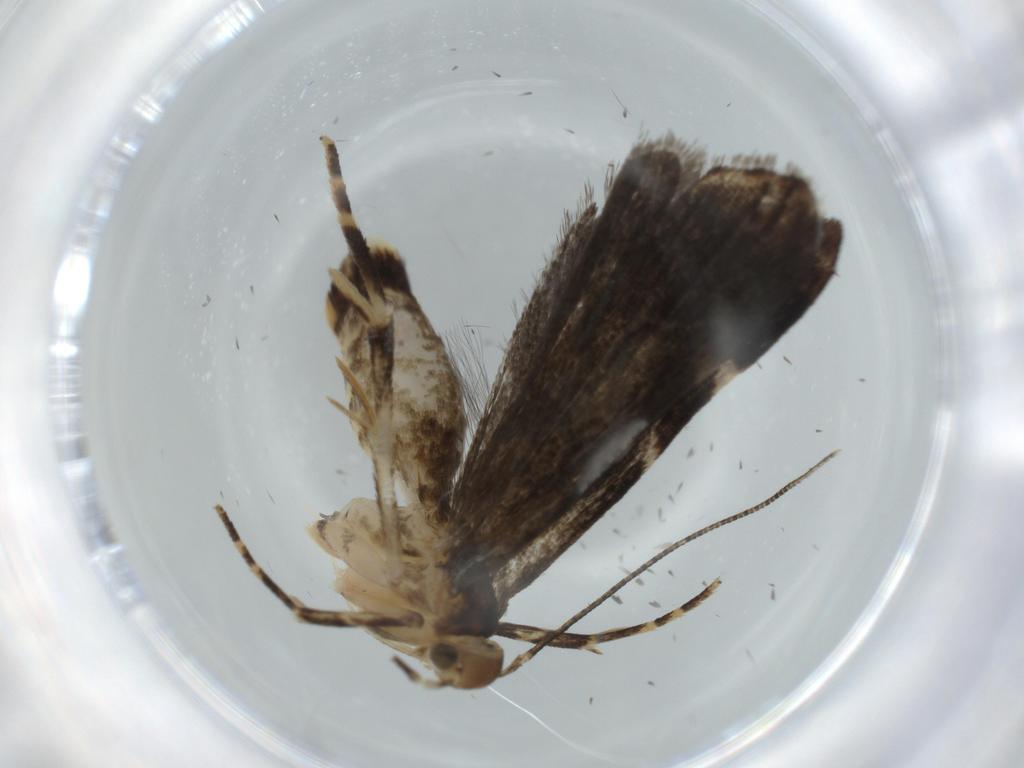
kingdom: Animalia
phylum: Arthropoda
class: Insecta
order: Lepidoptera
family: Cosmopterigidae
